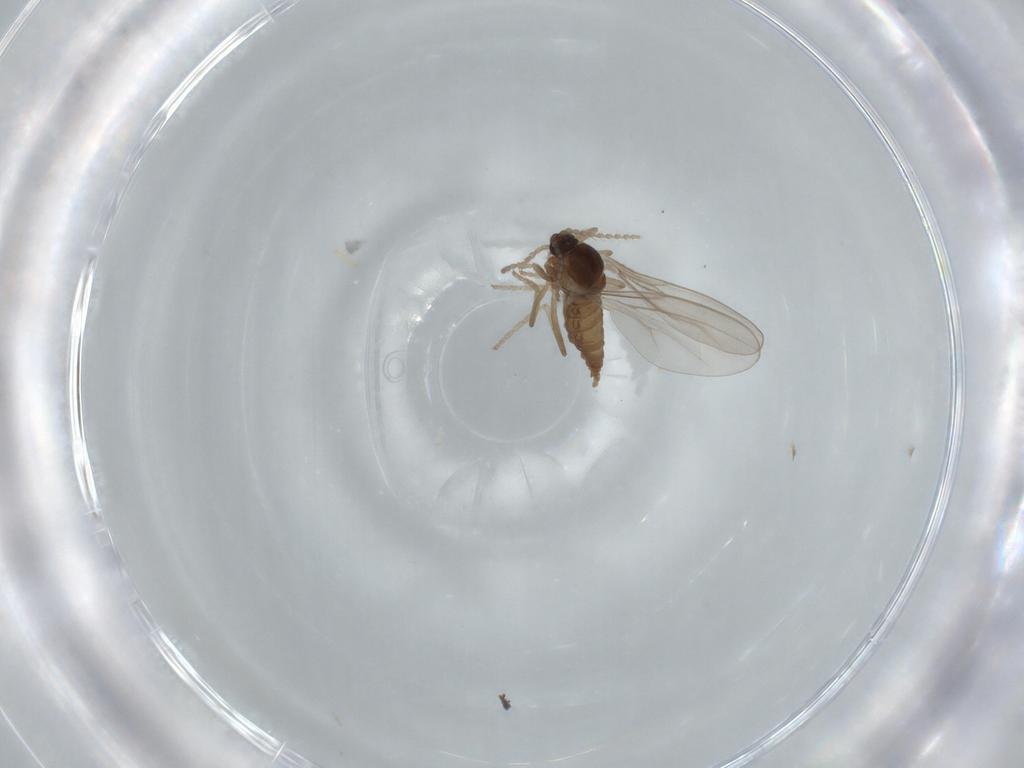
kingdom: Animalia
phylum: Arthropoda
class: Insecta
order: Diptera
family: Cecidomyiidae
